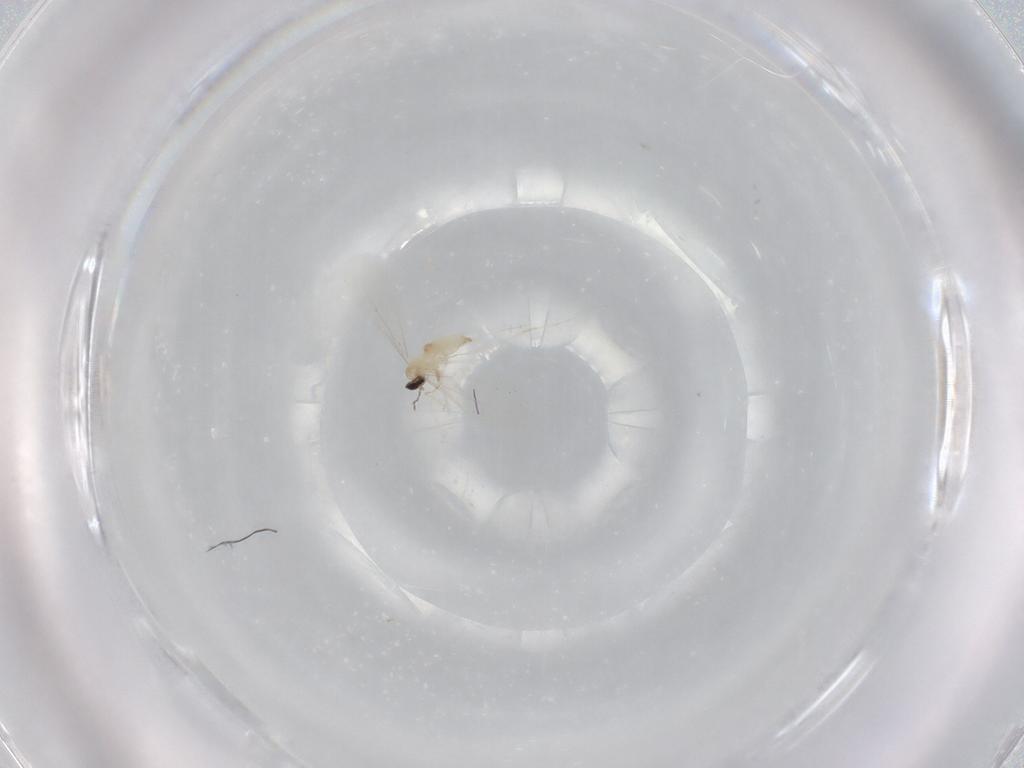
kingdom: Animalia
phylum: Arthropoda
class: Insecta
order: Diptera
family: Cecidomyiidae
